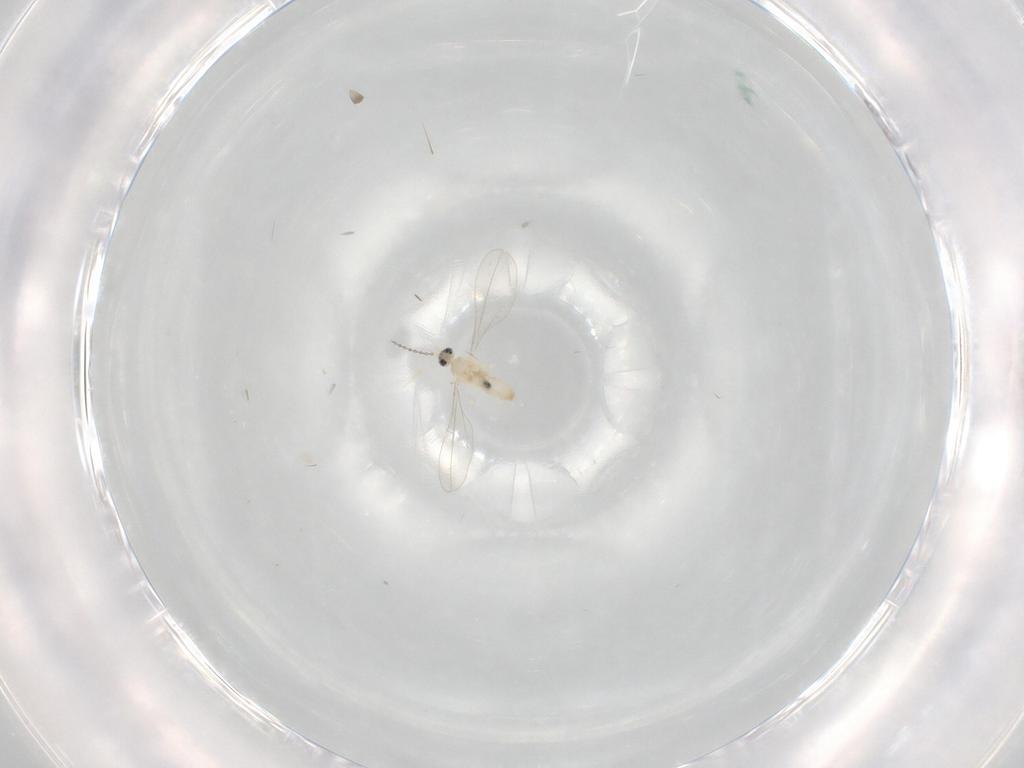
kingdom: Animalia
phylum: Arthropoda
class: Insecta
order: Diptera
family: Cecidomyiidae
